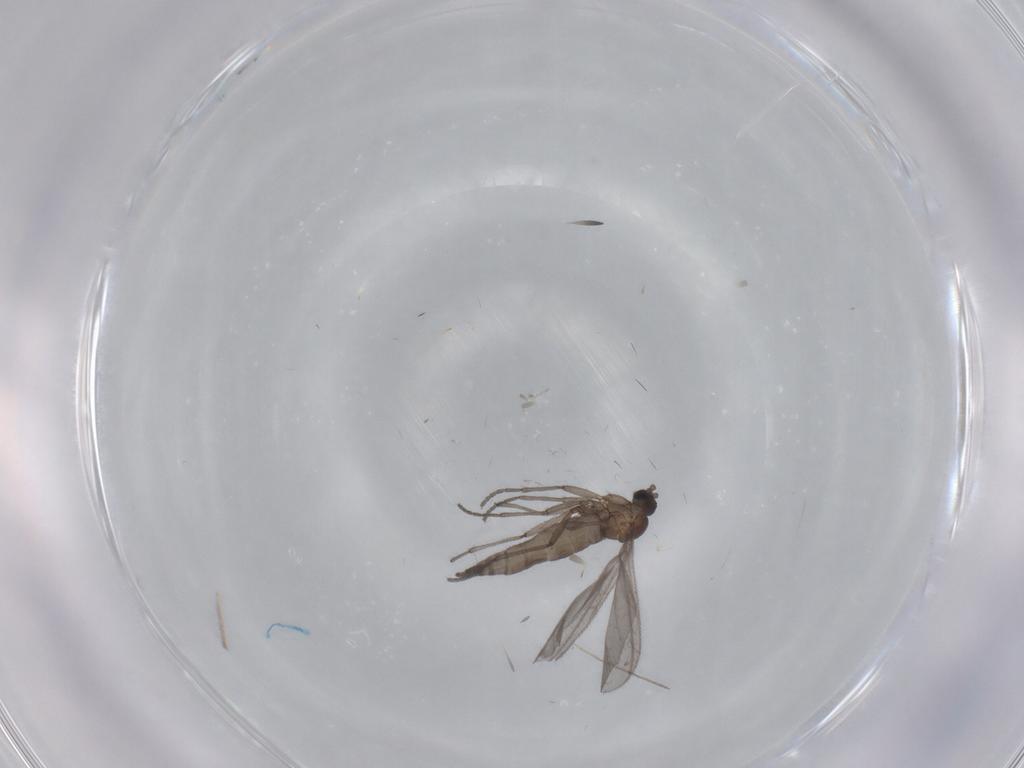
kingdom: Animalia
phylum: Arthropoda
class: Insecta
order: Diptera
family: Sciaridae
